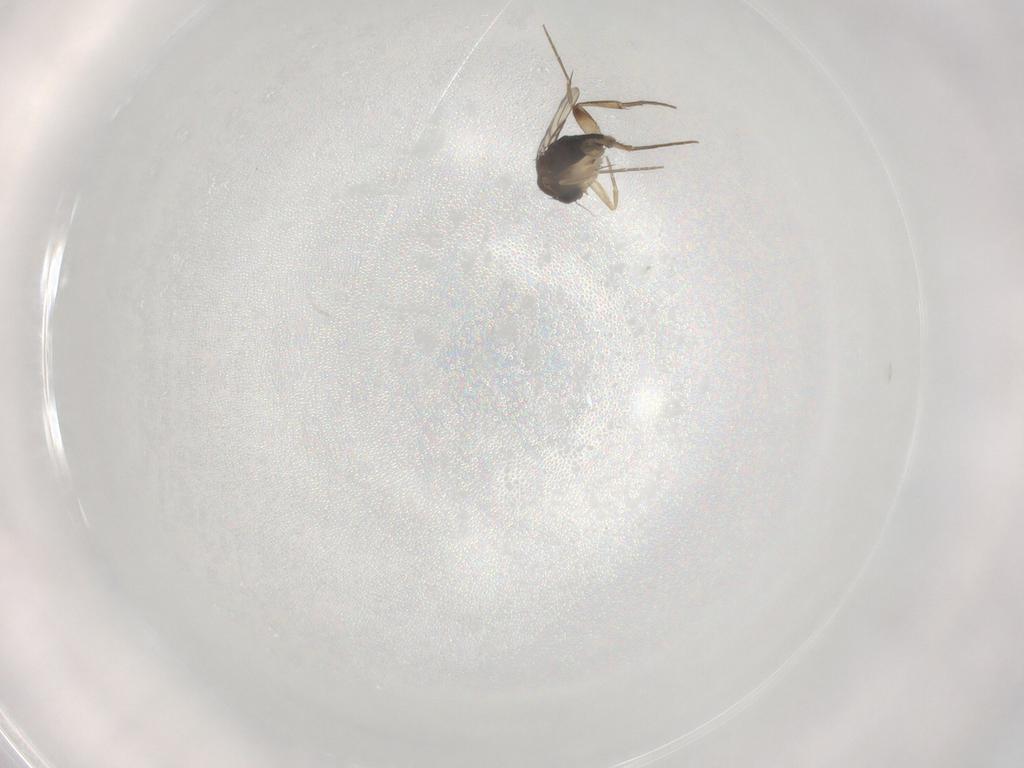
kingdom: Animalia
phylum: Arthropoda
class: Insecta
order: Diptera
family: Phoridae
